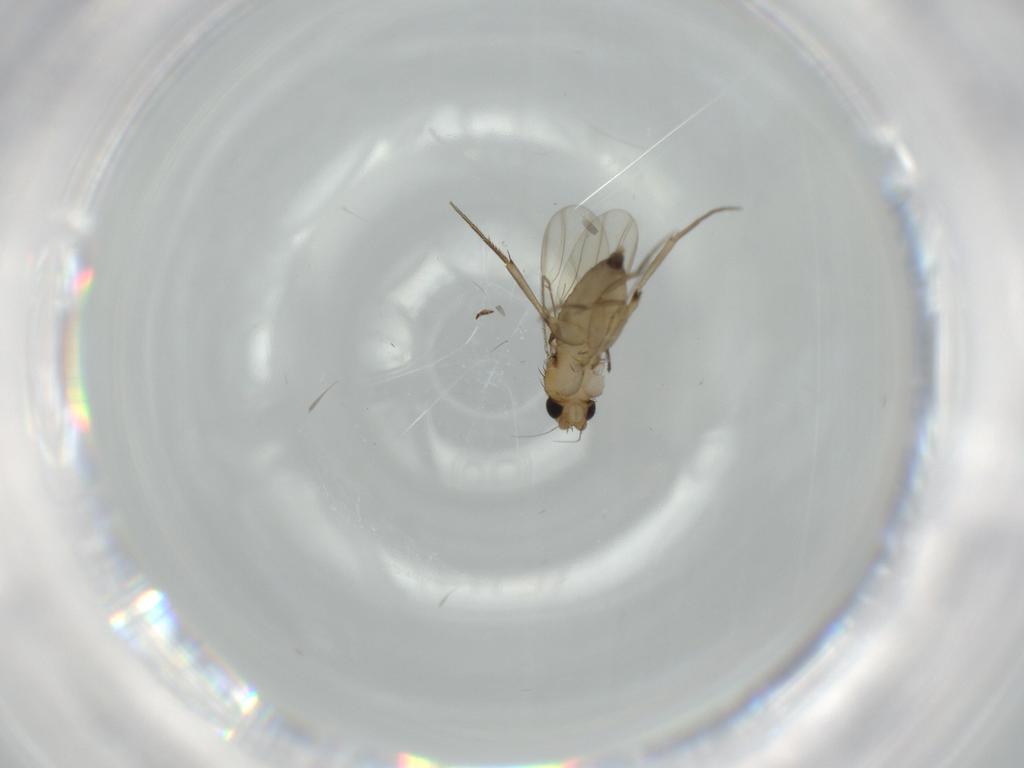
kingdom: Animalia
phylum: Arthropoda
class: Insecta
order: Diptera
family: Phoridae
